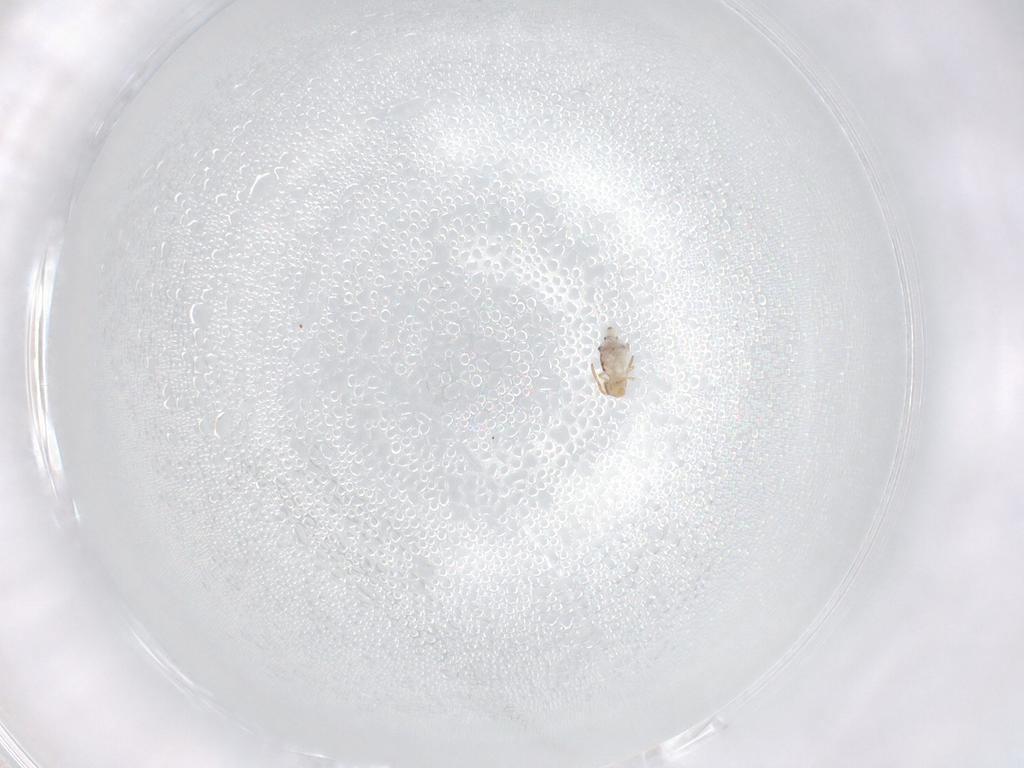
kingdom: Animalia
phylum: Arthropoda
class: Collembola
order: Symphypleona
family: Bourletiellidae
